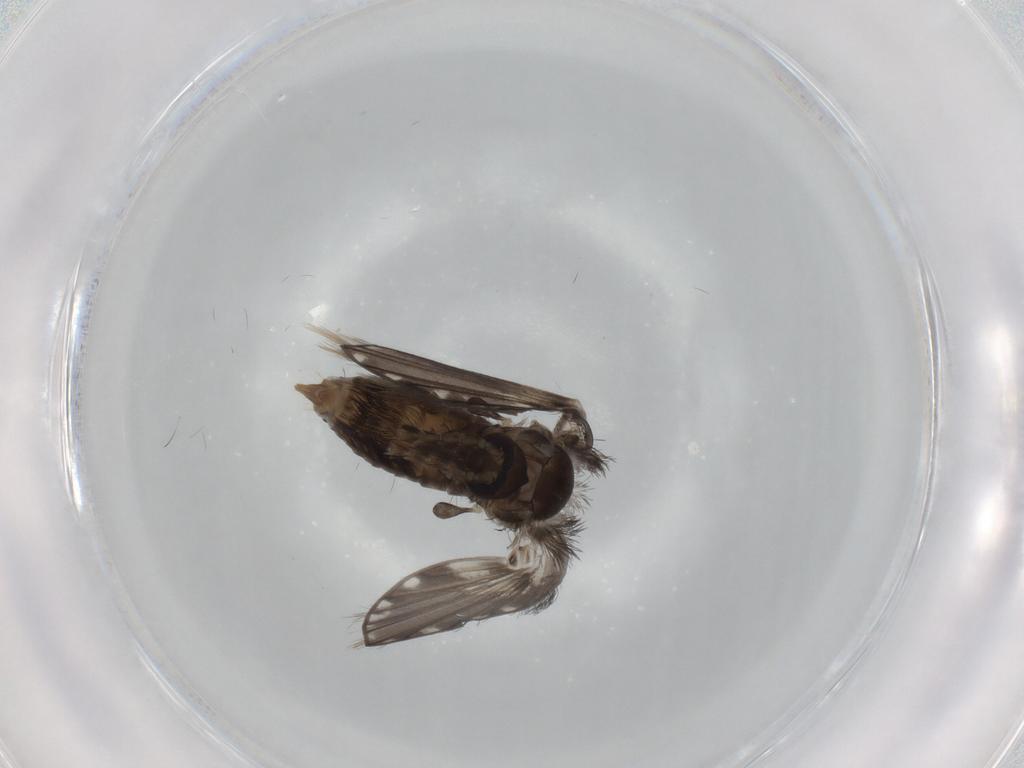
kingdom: Animalia
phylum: Arthropoda
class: Insecta
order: Diptera
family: Psychodidae
